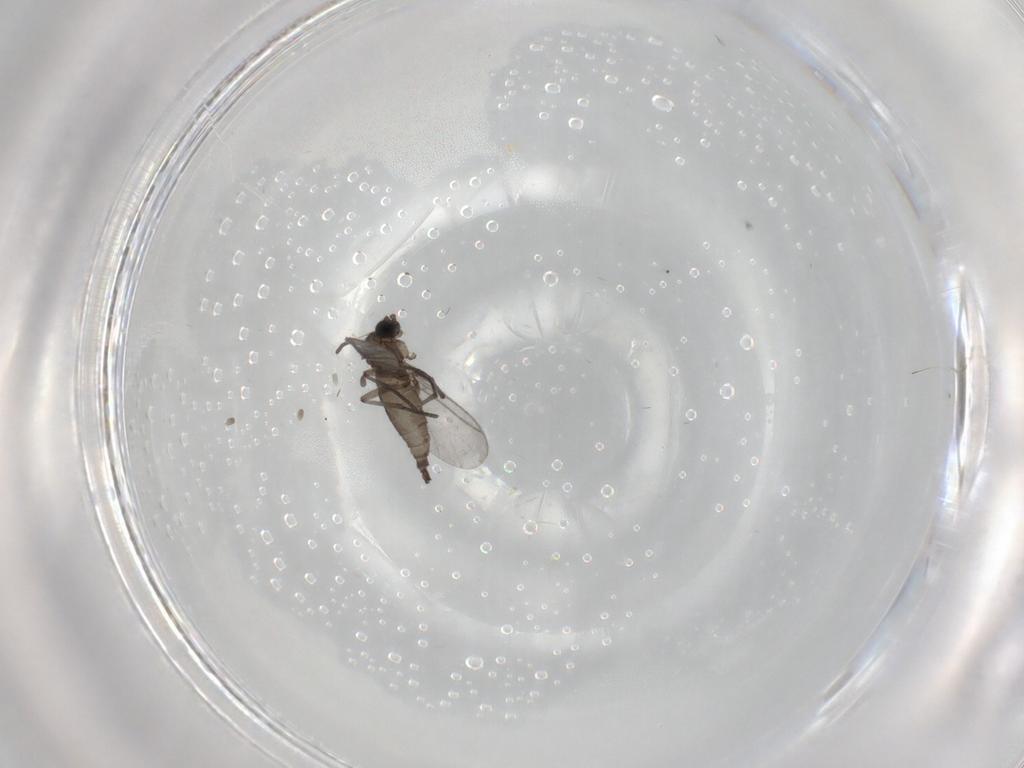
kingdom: Animalia
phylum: Arthropoda
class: Insecta
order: Diptera
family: Sciaridae
